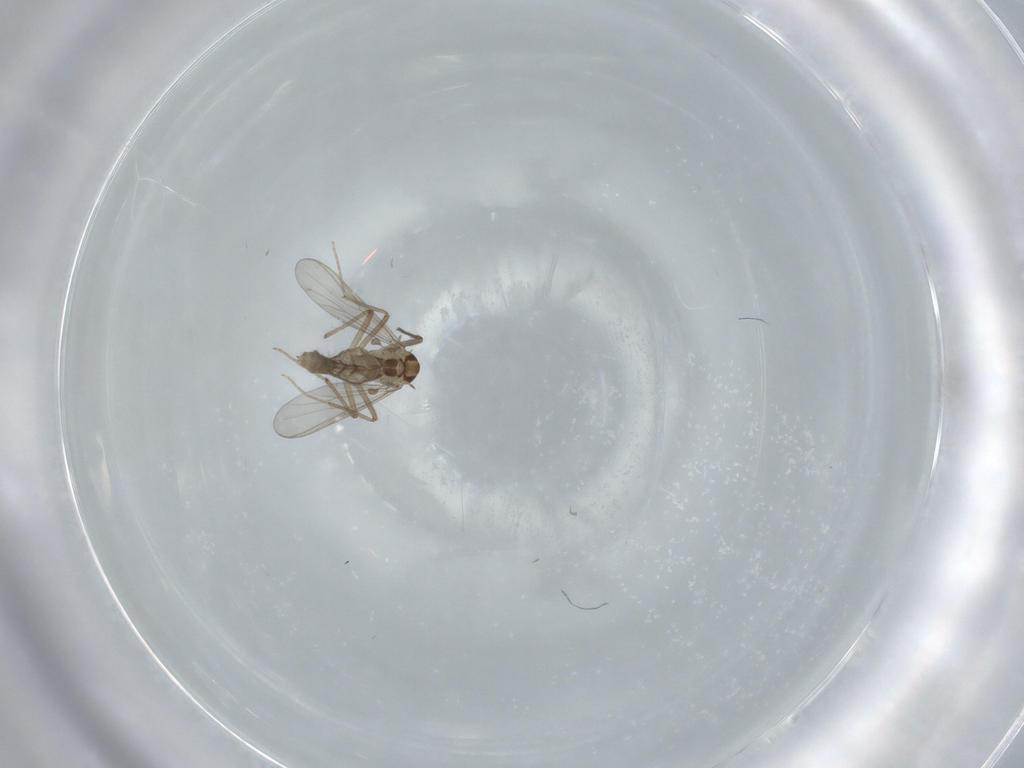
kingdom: Animalia
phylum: Arthropoda
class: Insecta
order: Diptera
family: Chironomidae
